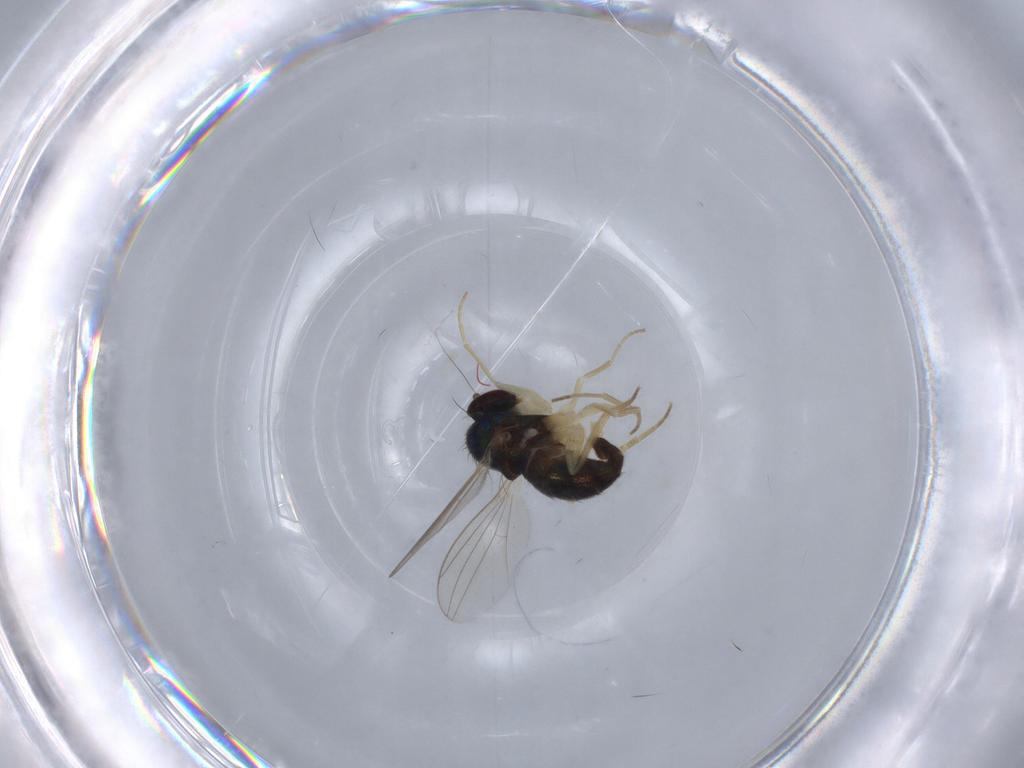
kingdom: Animalia
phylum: Arthropoda
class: Insecta
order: Diptera
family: Dolichopodidae
